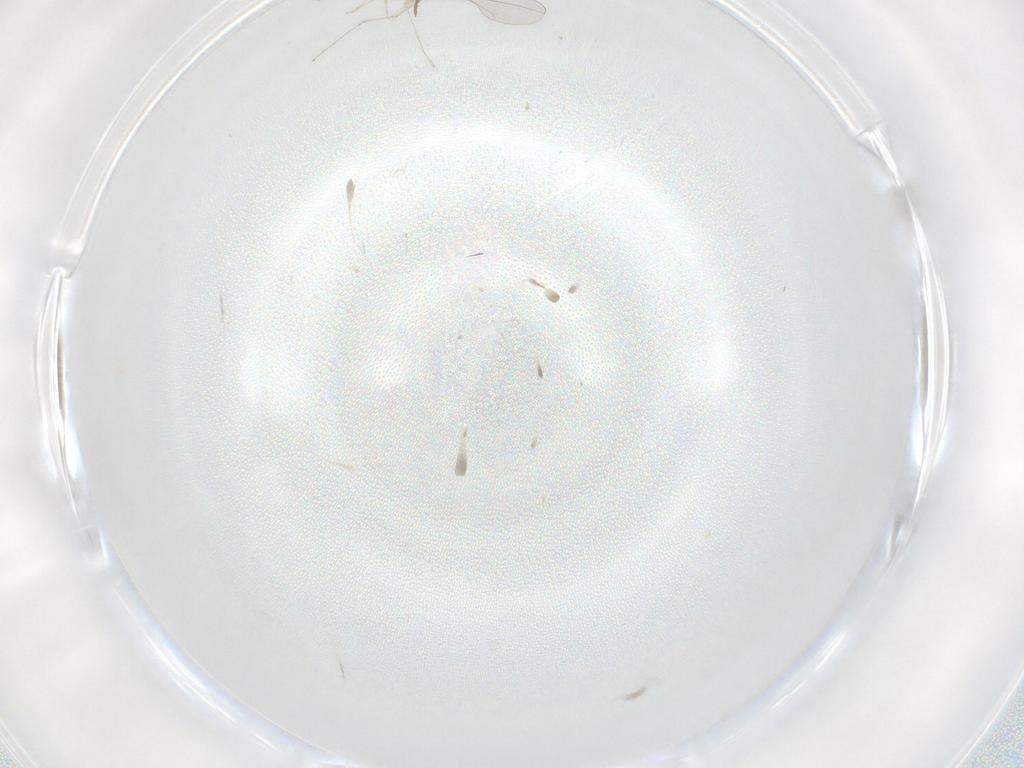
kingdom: Animalia
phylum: Arthropoda
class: Insecta
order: Diptera
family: Cecidomyiidae
